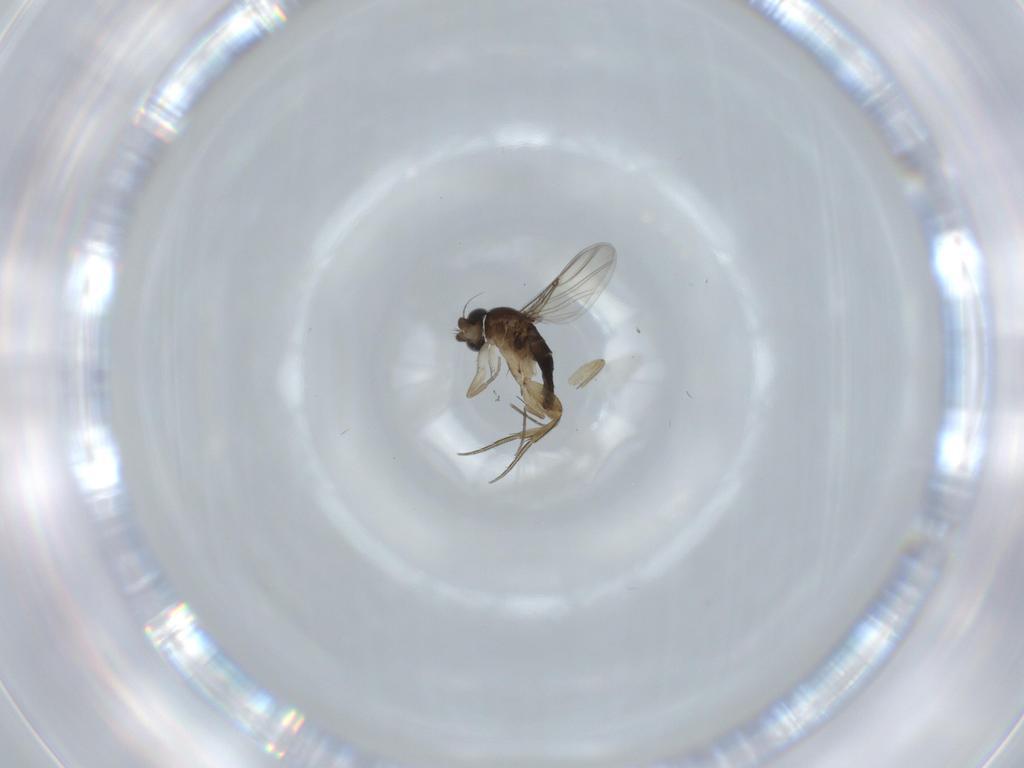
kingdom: Animalia
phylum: Arthropoda
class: Insecta
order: Diptera
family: Phoridae
